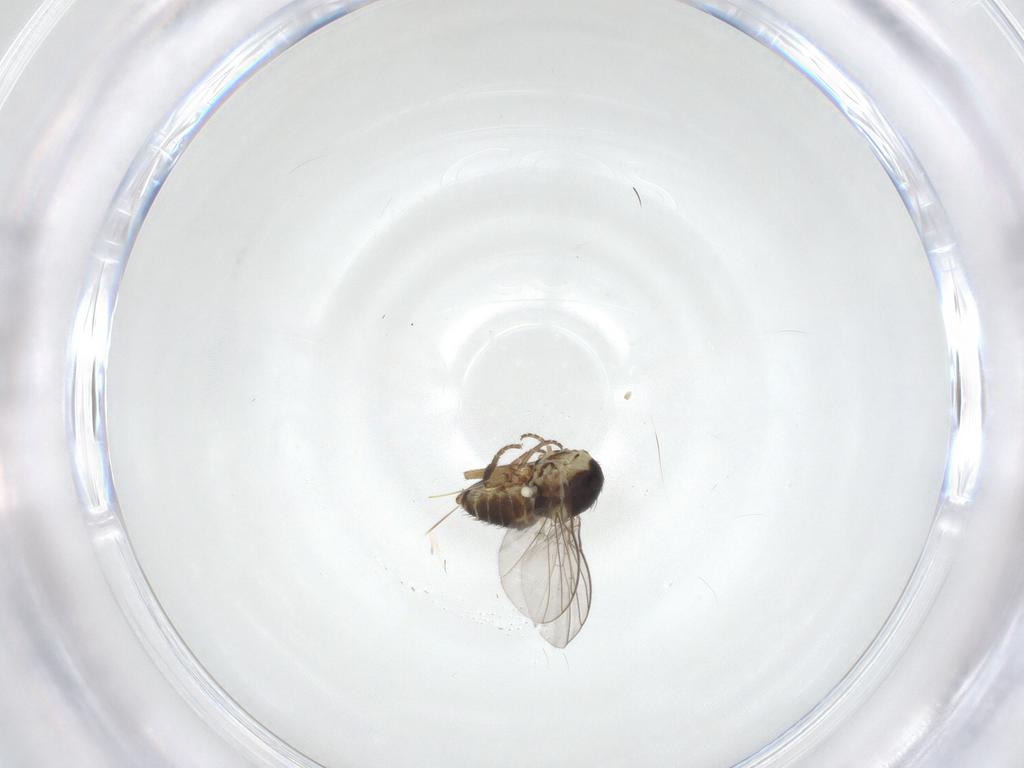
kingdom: Animalia
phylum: Arthropoda
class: Insecta
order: Diptera
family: Agromyzidae
